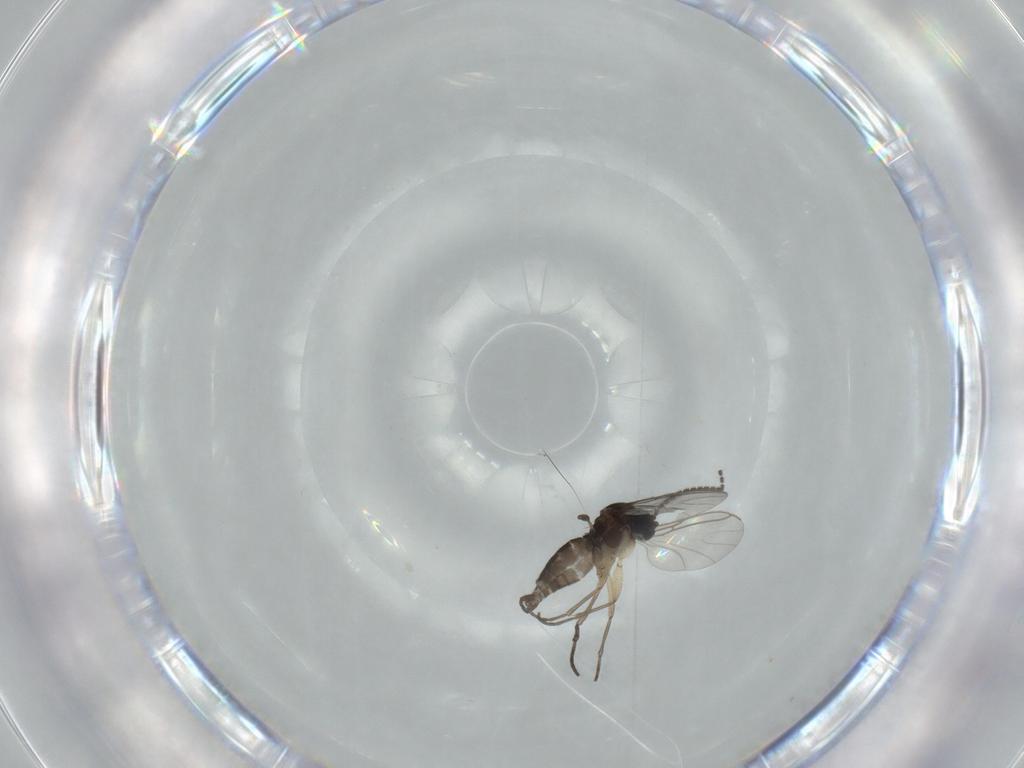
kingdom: Animalia
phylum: Arthropoda
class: Insecta
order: Diptera
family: Sciaridae
